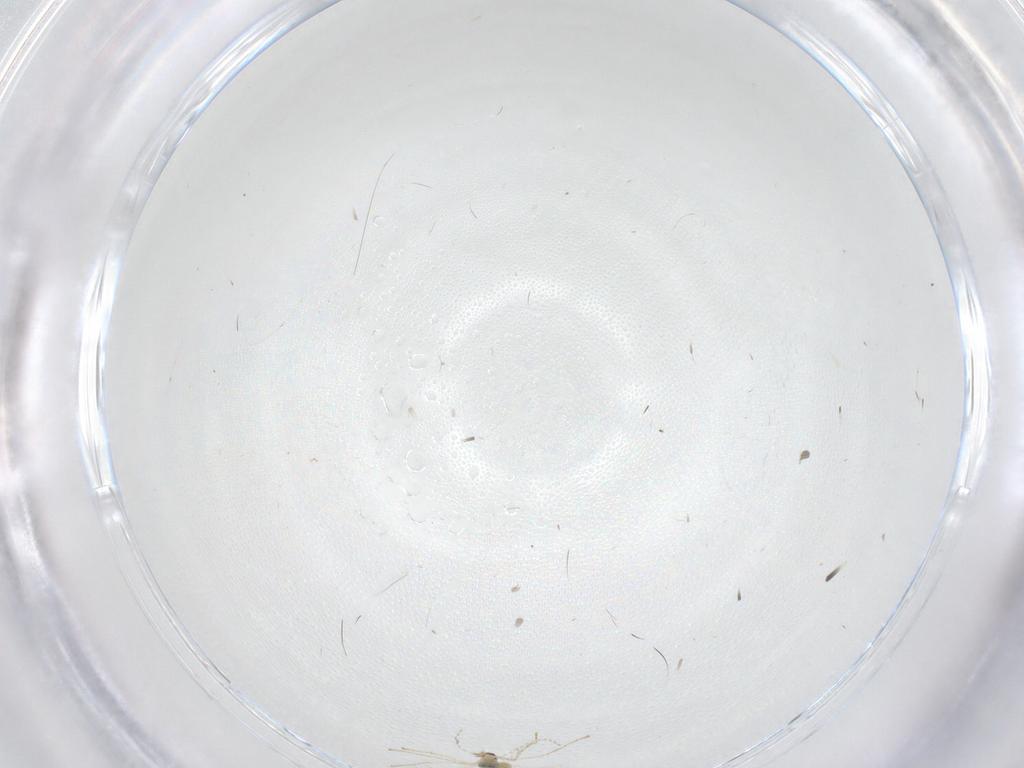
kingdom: Animalia
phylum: Arthropoda
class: Insecta
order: Diptera
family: Cecidomyiidae
